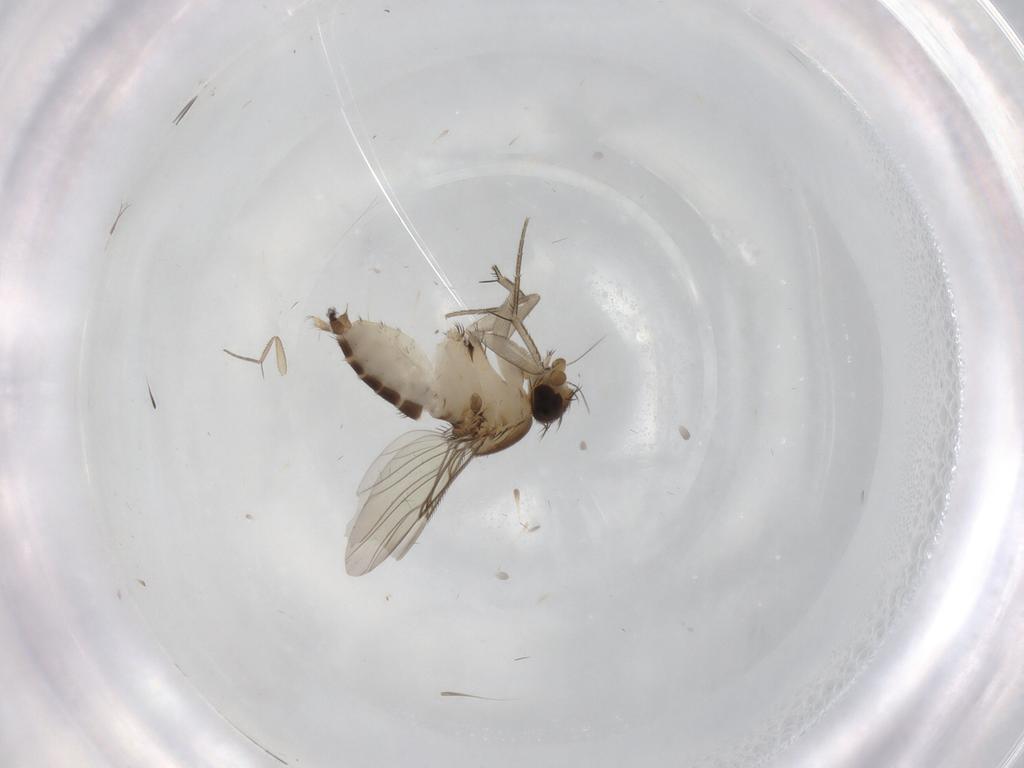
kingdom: Animalia
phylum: Arthropoda
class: Insecta
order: Diptera
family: Phoridae
